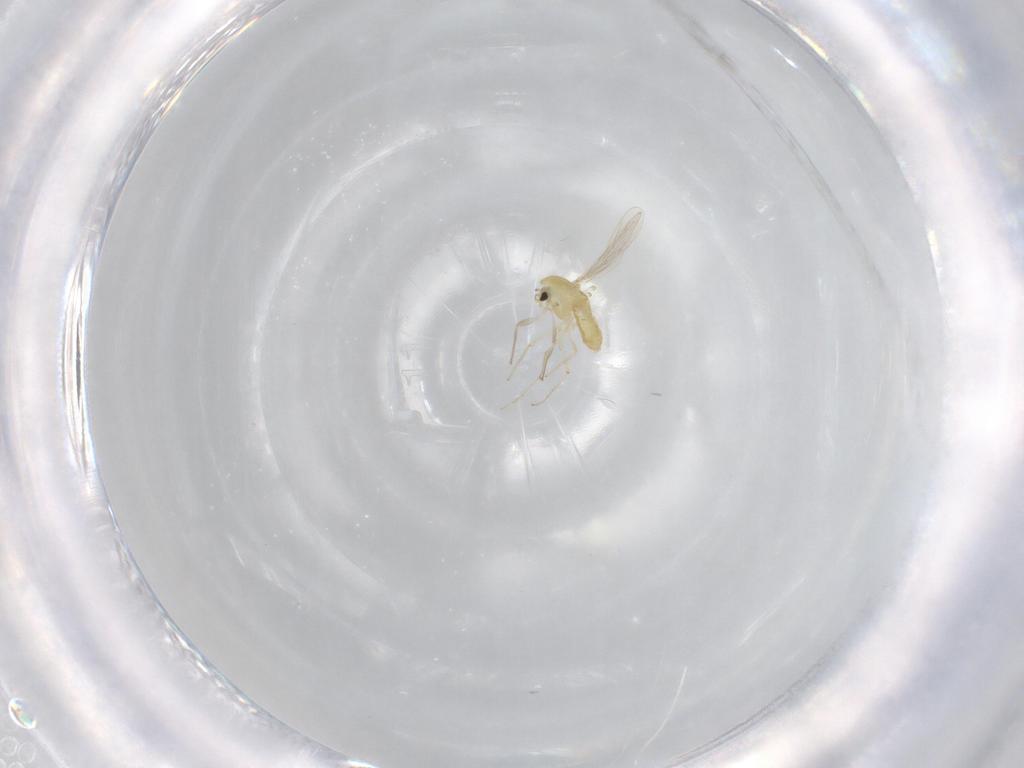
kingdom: Animalia
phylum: Arthropoda
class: Insecta
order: Diptera
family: Chironomidae
